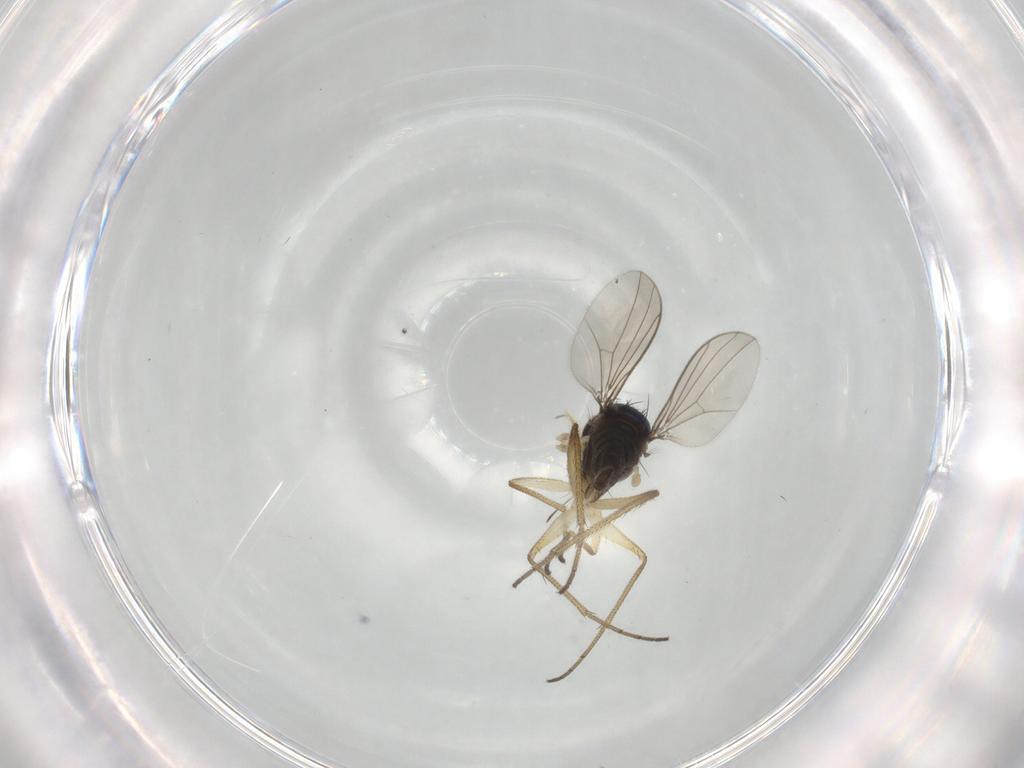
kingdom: Animalia
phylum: Arthropoda
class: Insecta
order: Diptera
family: Dolichopodidae
